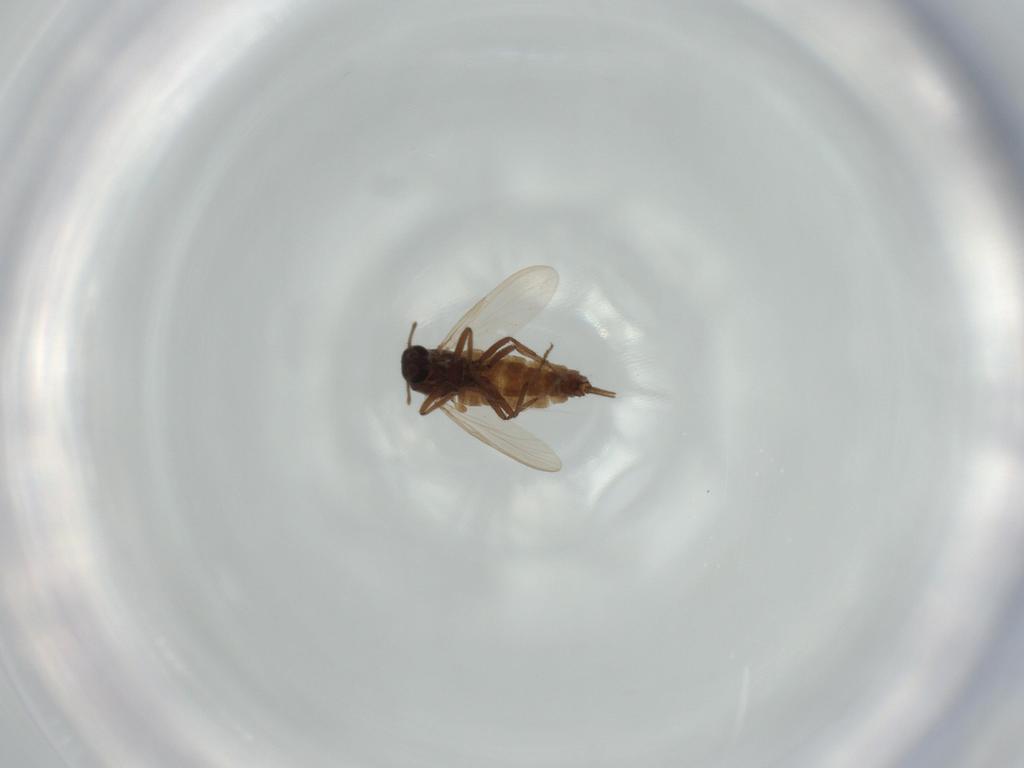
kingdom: Animalia
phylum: Arthropoda
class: Insecta
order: Diptera
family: Ceratopogonidae
